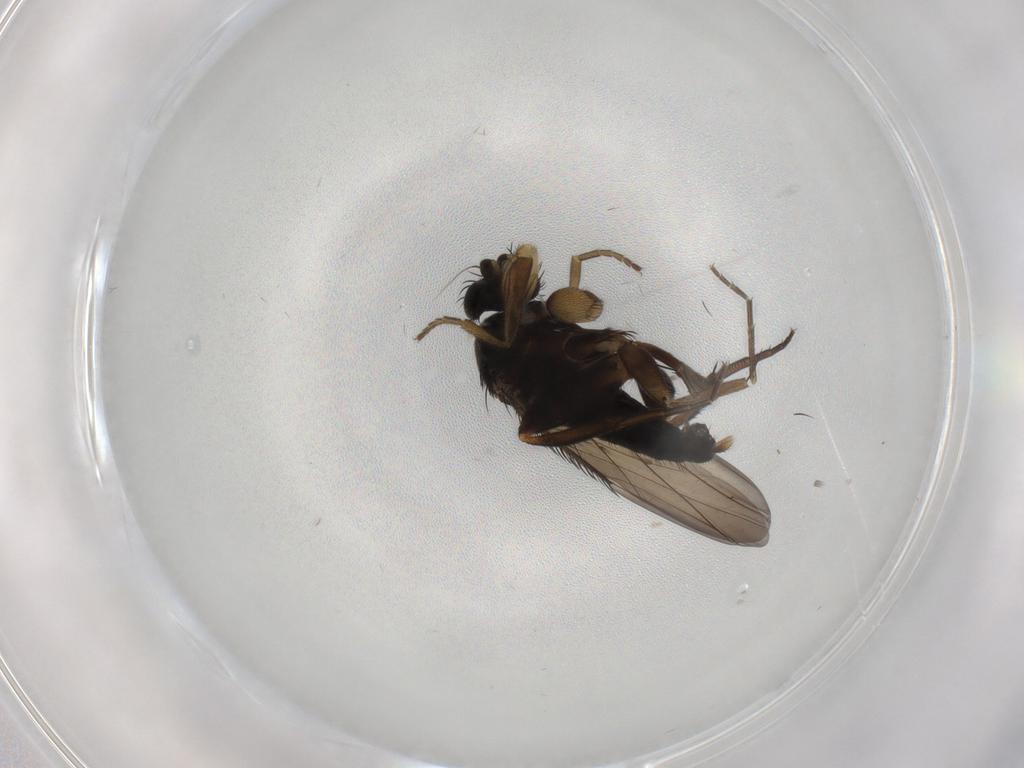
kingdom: Animalia
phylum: Arthropoda
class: Insecta
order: Diptera
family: Phoridae
